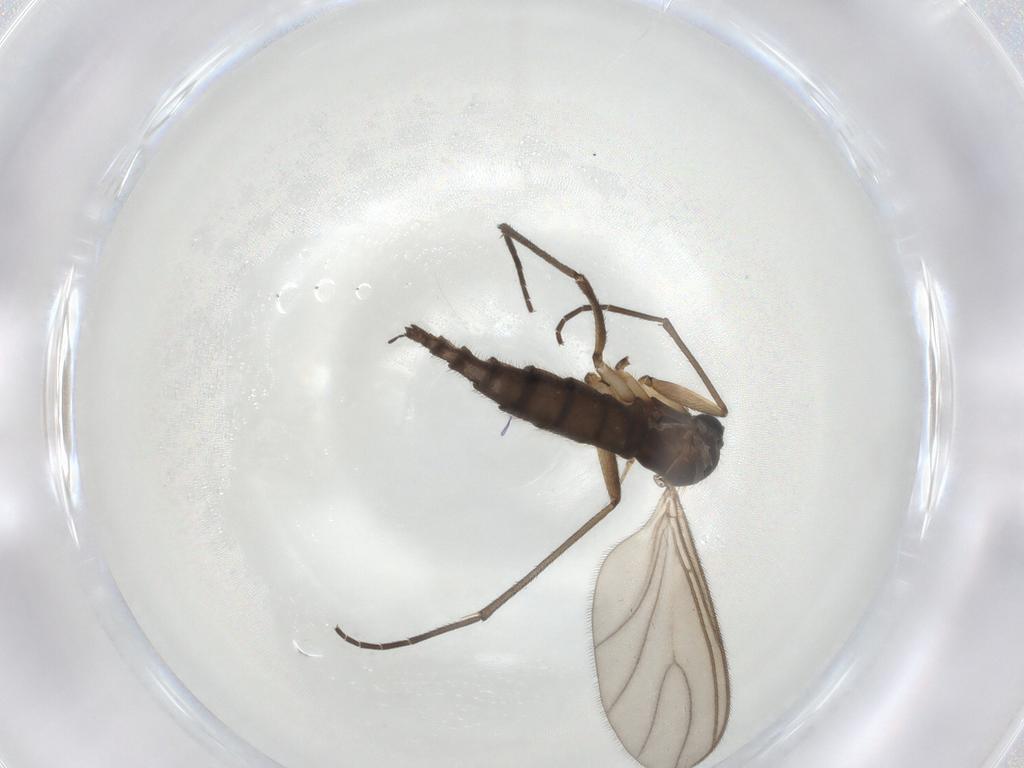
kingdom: Animalia
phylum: Arthropoda
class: Insecta
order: Diptera
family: Sciaridae
